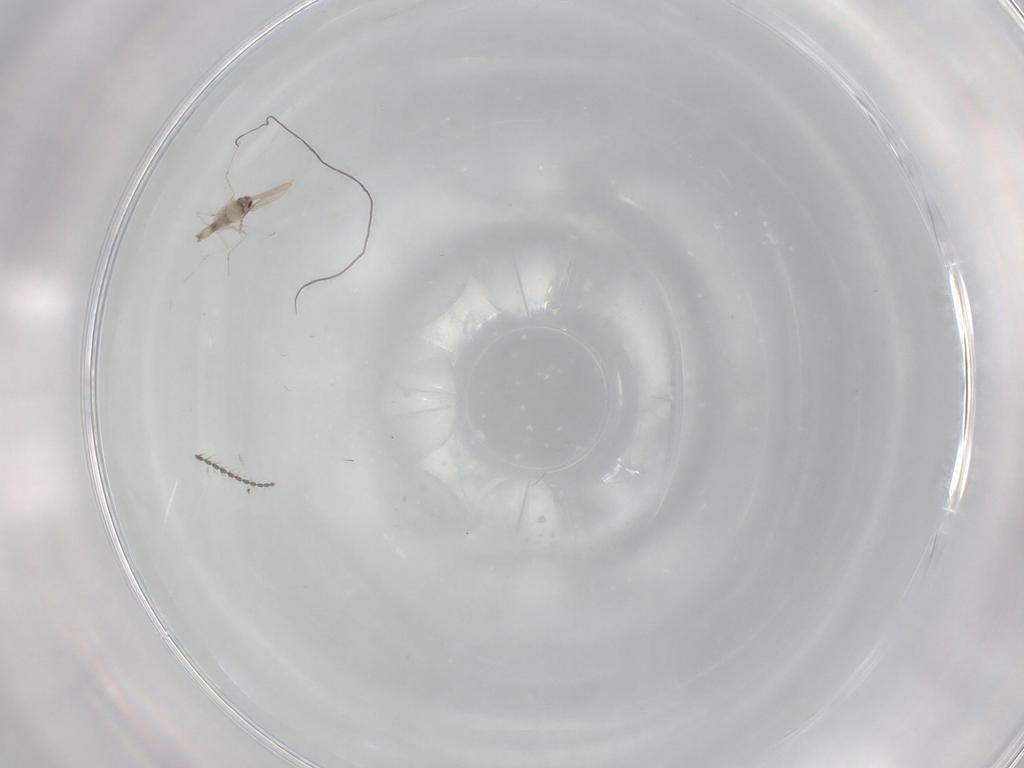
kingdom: Animalia
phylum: Arthropoda
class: Insecta
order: Diptera
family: Cecidomyiidae
